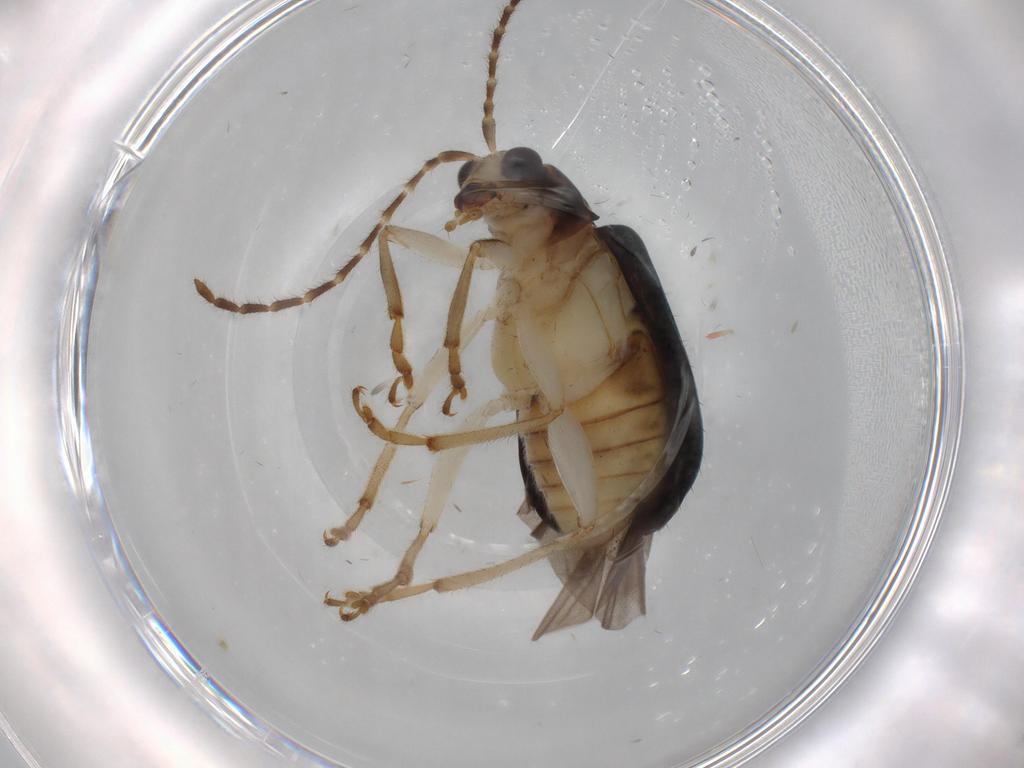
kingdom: Animalia
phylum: Arthropoda
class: Insecta
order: Coleoptera
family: Chrysomelidae
